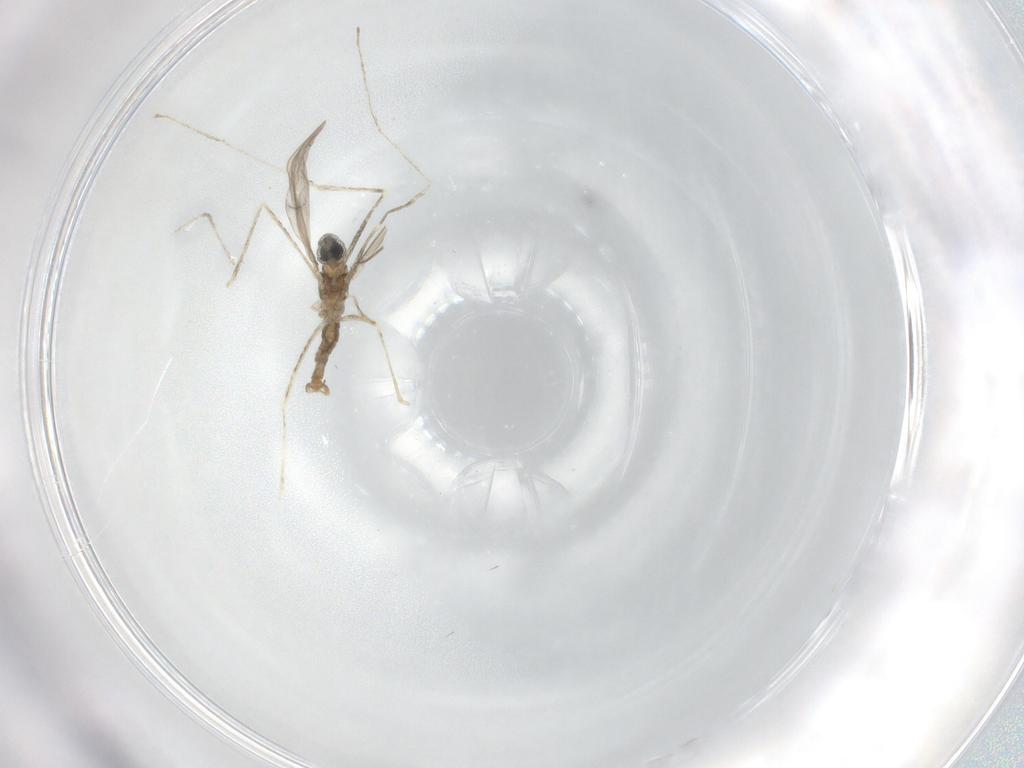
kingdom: Animalia
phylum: Arthropoda
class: Insecta
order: Diptera
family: Cecidomyiidae
